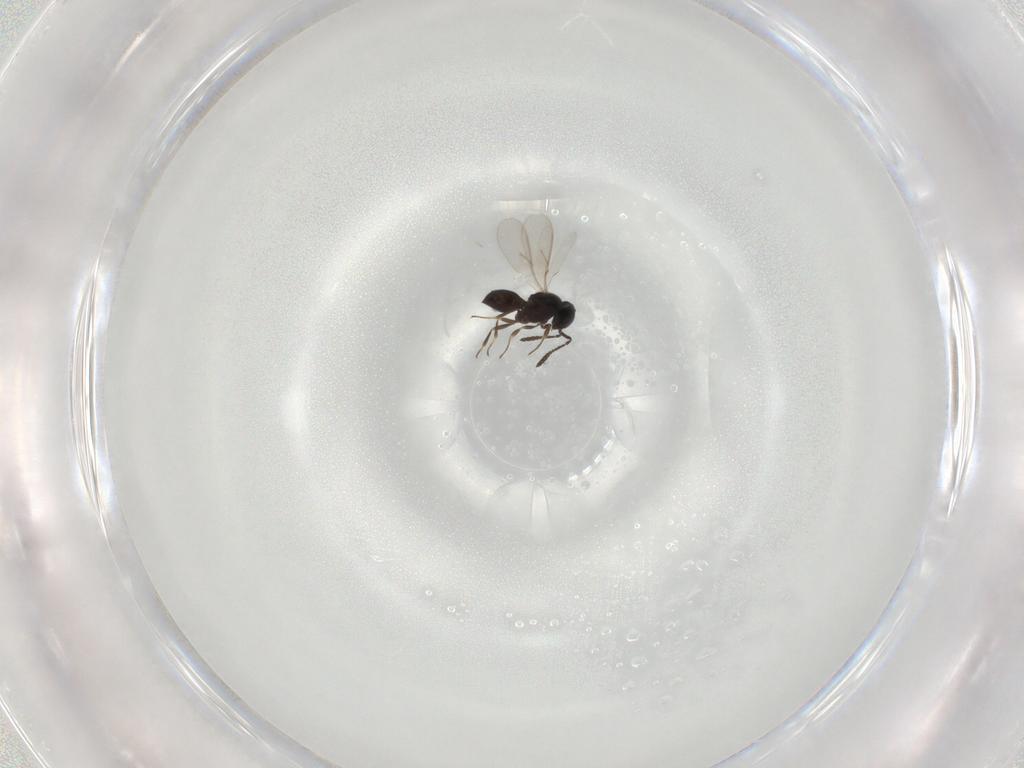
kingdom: Animalia
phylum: Arthropoda
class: Insecta
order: Hymenoptera
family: Scelionidae
